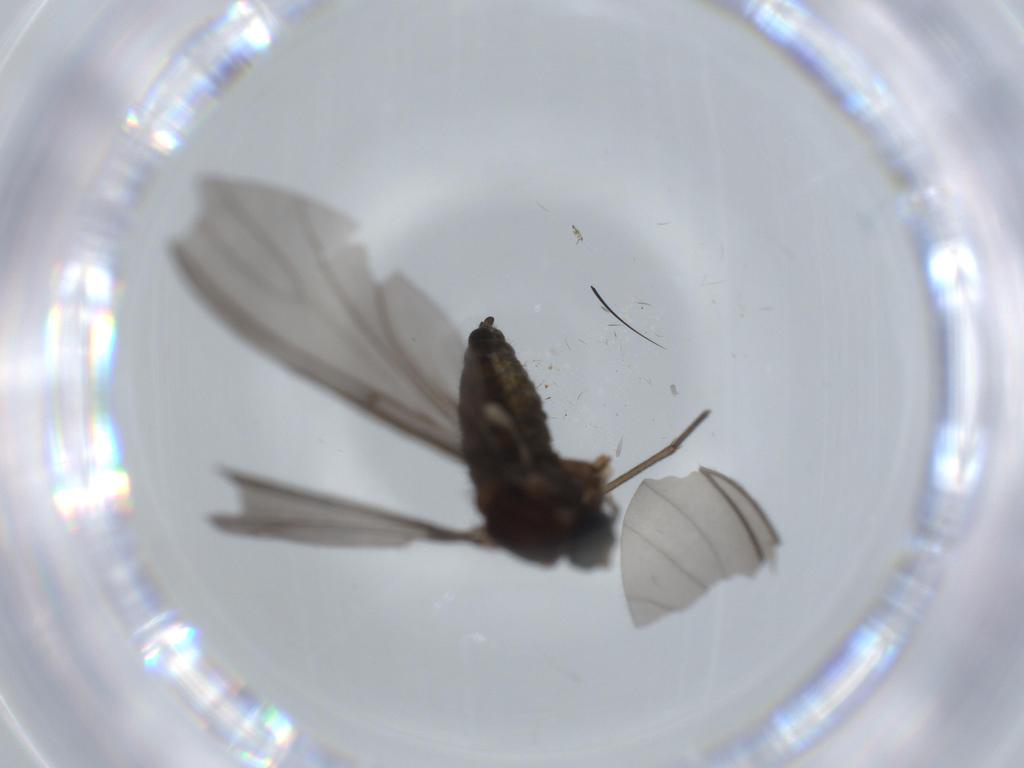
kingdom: Animalia
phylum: Arthropoda
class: Insecta
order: Diptera
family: Sciaridae
